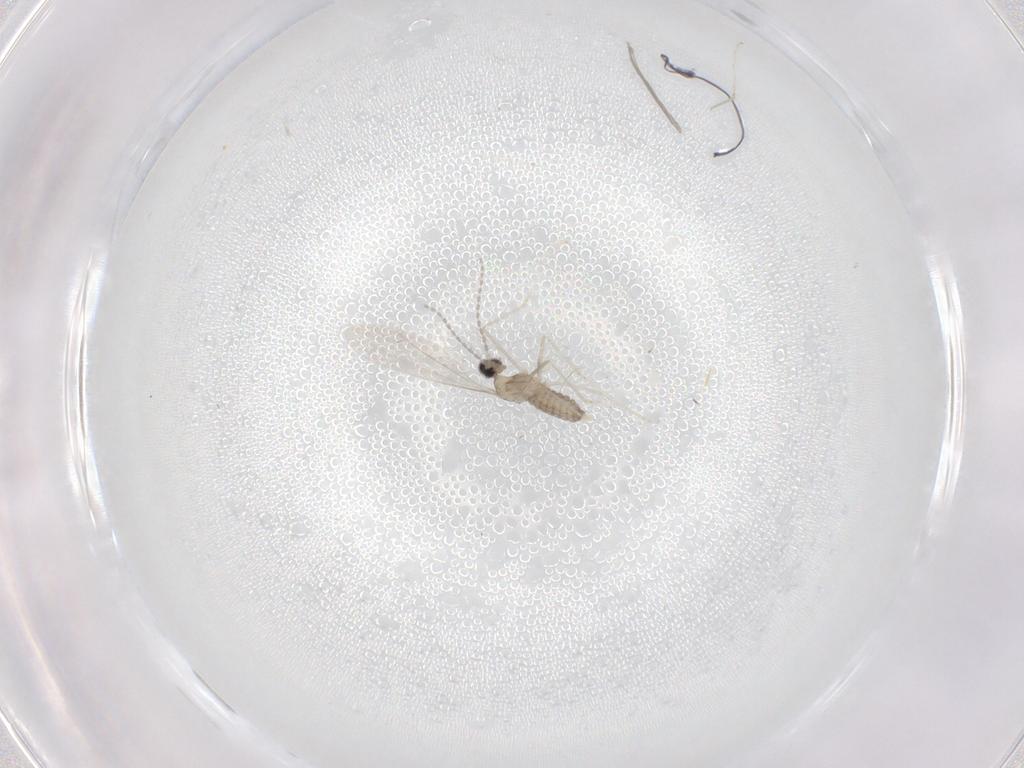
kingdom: Animalia
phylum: Arthropoda
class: Insecta
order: Diptera
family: Cecidomyiidae
